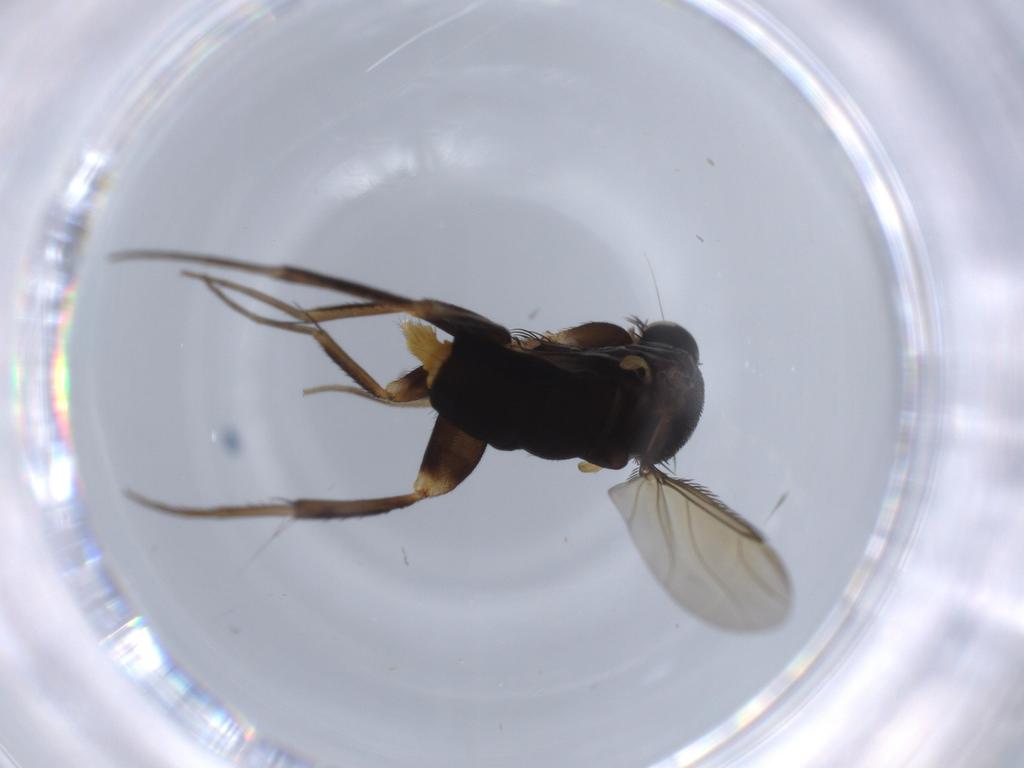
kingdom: Animalia
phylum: Arthropoda
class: Insecta
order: Diptera
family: Phoridae
